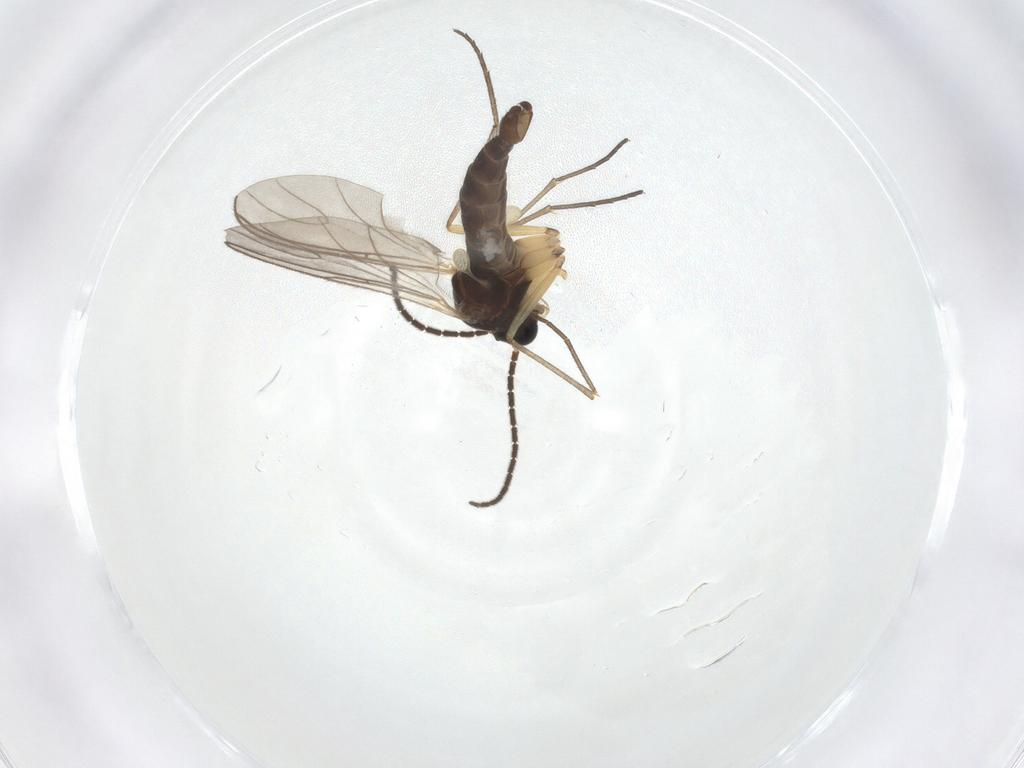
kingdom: Animalia
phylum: Arthropoda
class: Insecta
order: Diptera
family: Sciaridae
